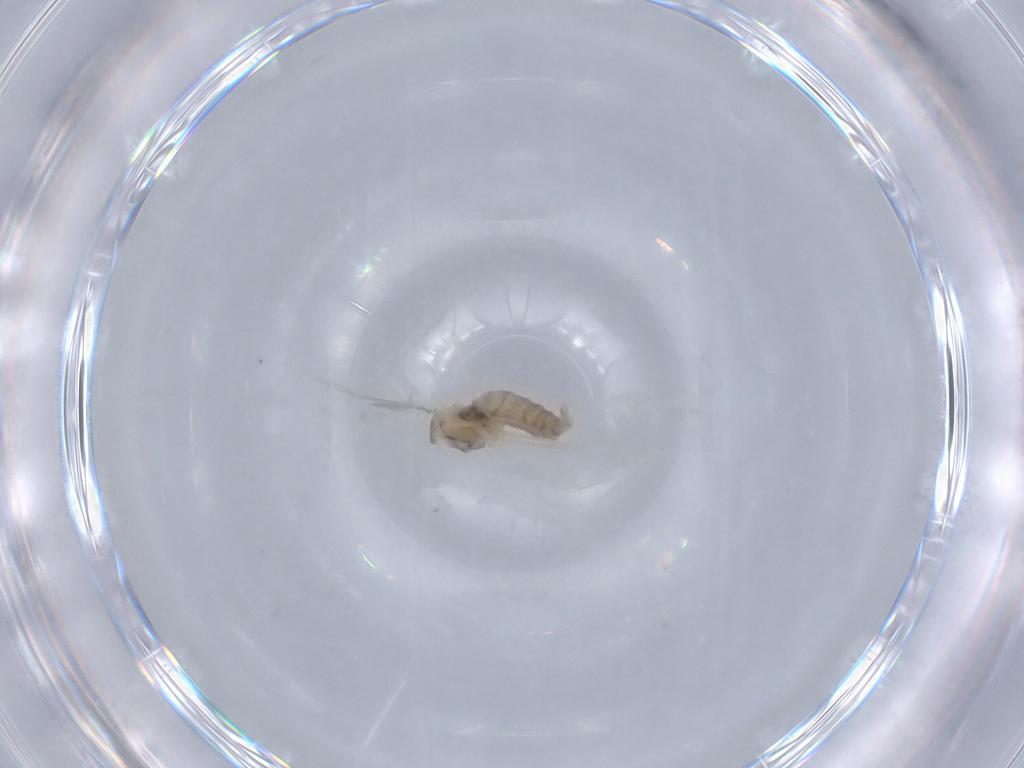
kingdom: Animalia
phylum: Arthropoda
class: Insecta
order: Diptera
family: Cecidomyiidae
